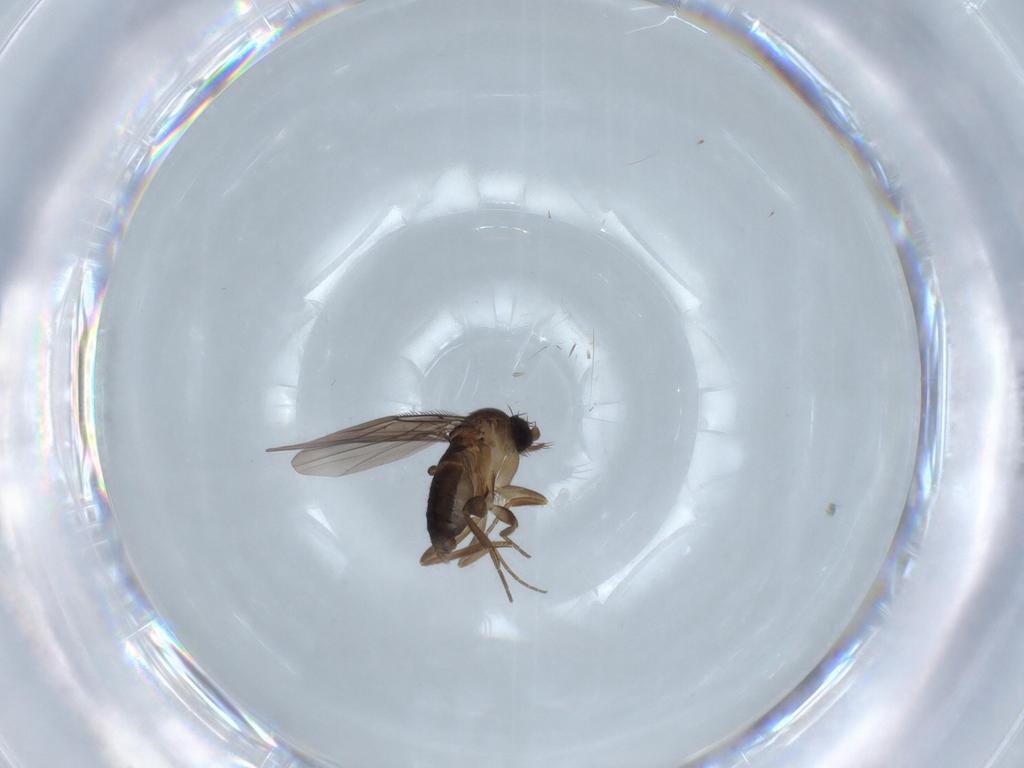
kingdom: Animalia
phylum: Arthropoda
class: Insecta
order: Diptera
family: Phoridae
